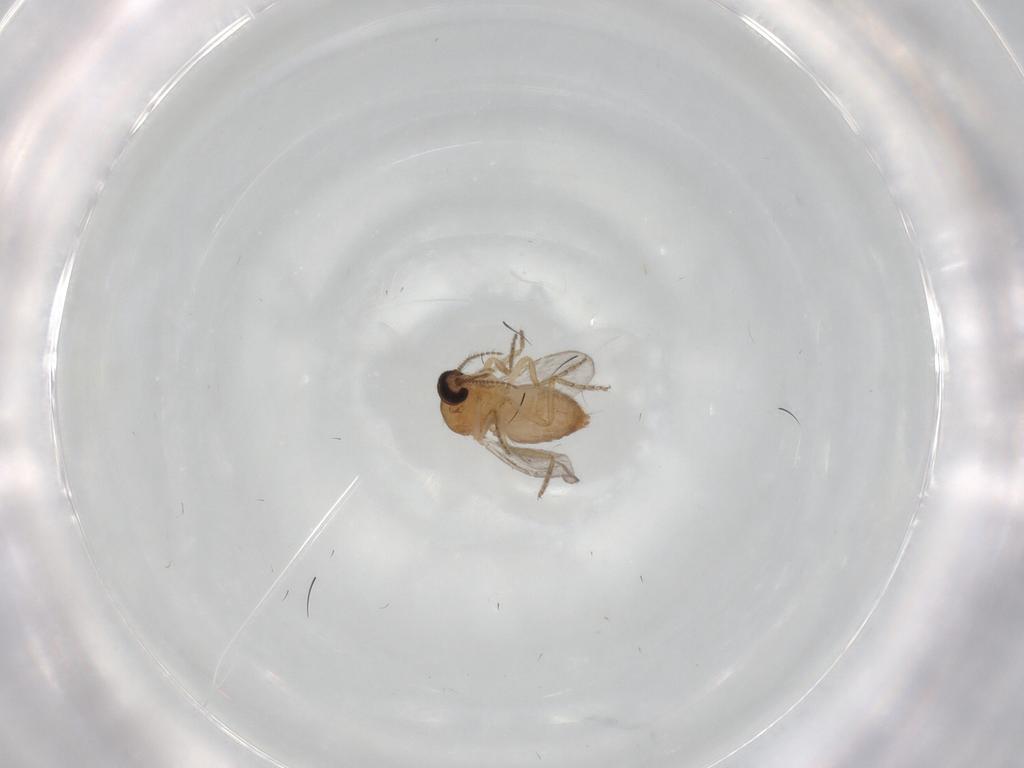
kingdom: Animalia
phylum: Arthropoda
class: Insecta
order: Diptera
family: Ceratopogonidae
